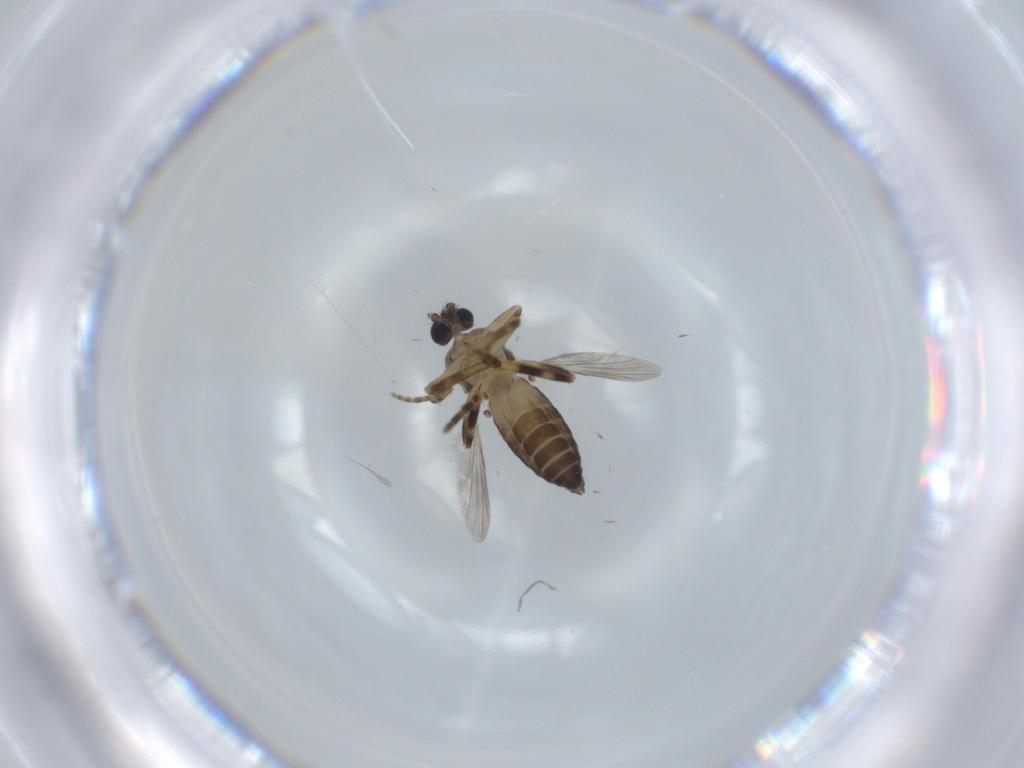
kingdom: Animalia
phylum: Arthropoda
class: Insecta
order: Diptera
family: Ceratopogonidae
